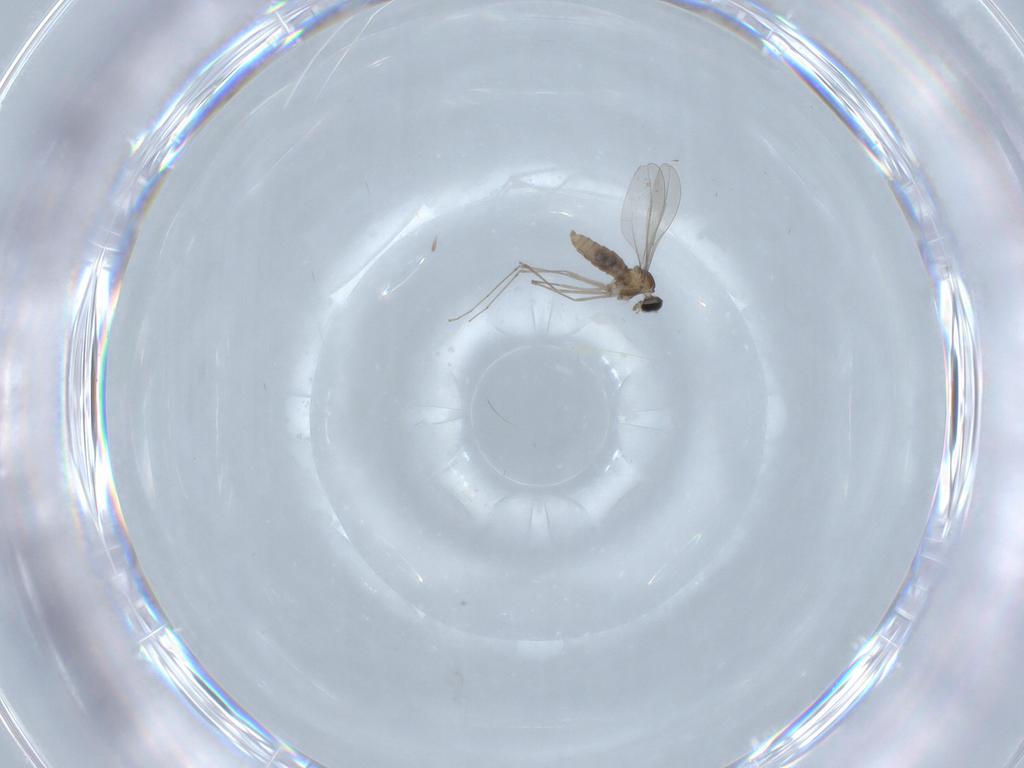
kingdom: Animalia
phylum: Arthropoda
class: Insecta
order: Diptera
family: Cecidomyiidae
